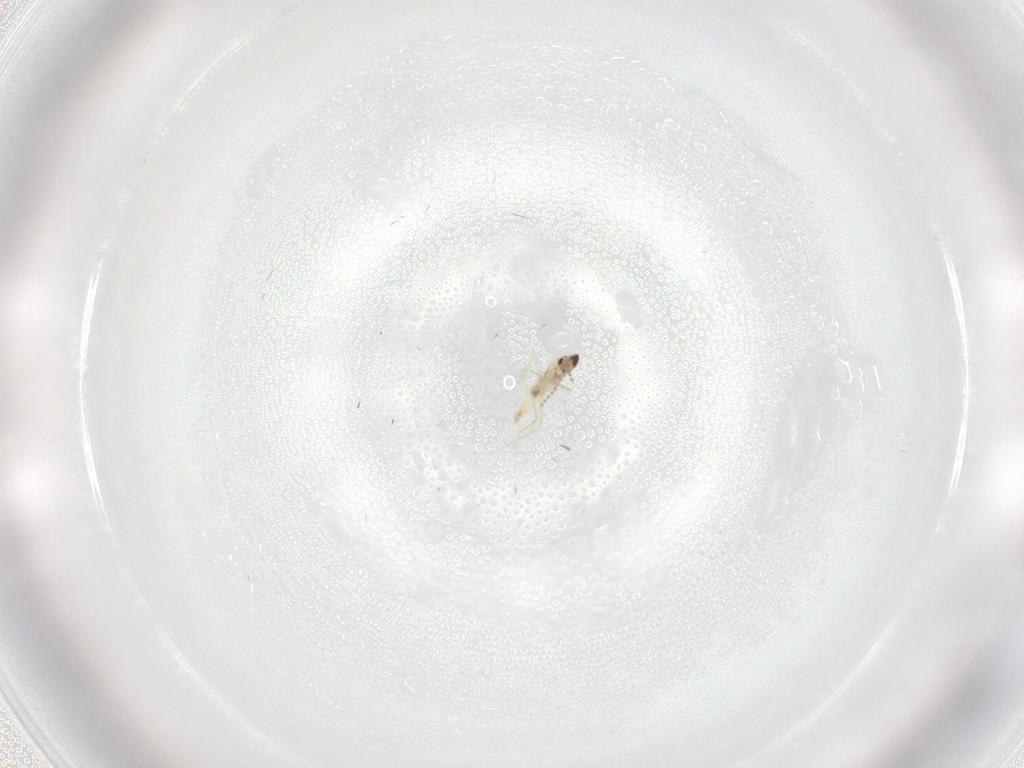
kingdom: Animalia
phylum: Arthropoda
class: Insecta
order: Diptera
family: Cecidomyiidae
